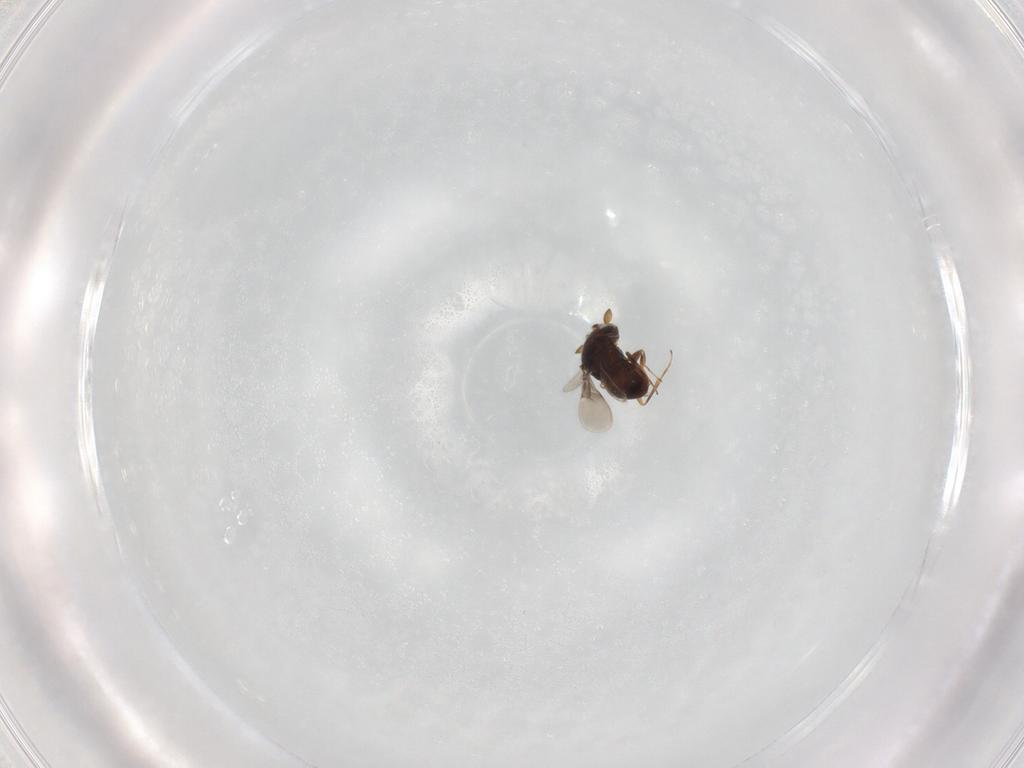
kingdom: Animalia
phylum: Arthropoda
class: Insecta
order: Hymenoptera
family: Scelionidae
